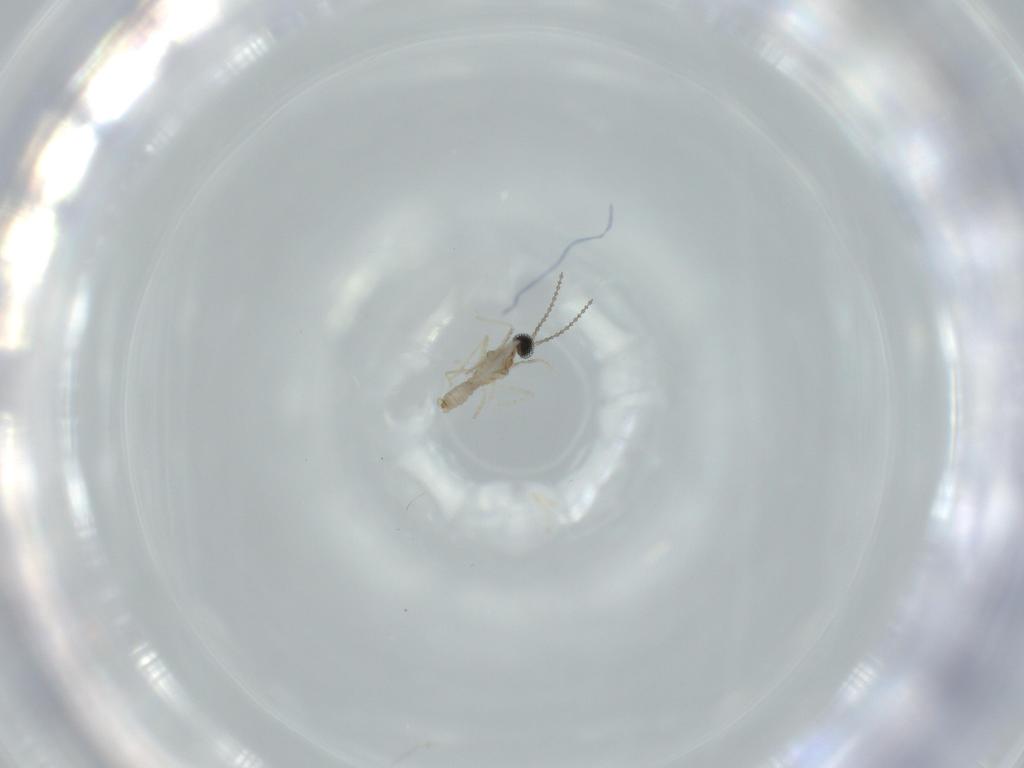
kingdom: Animalia
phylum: Arthropoda
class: Insecta
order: Diptera
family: Cecidomyiidae
